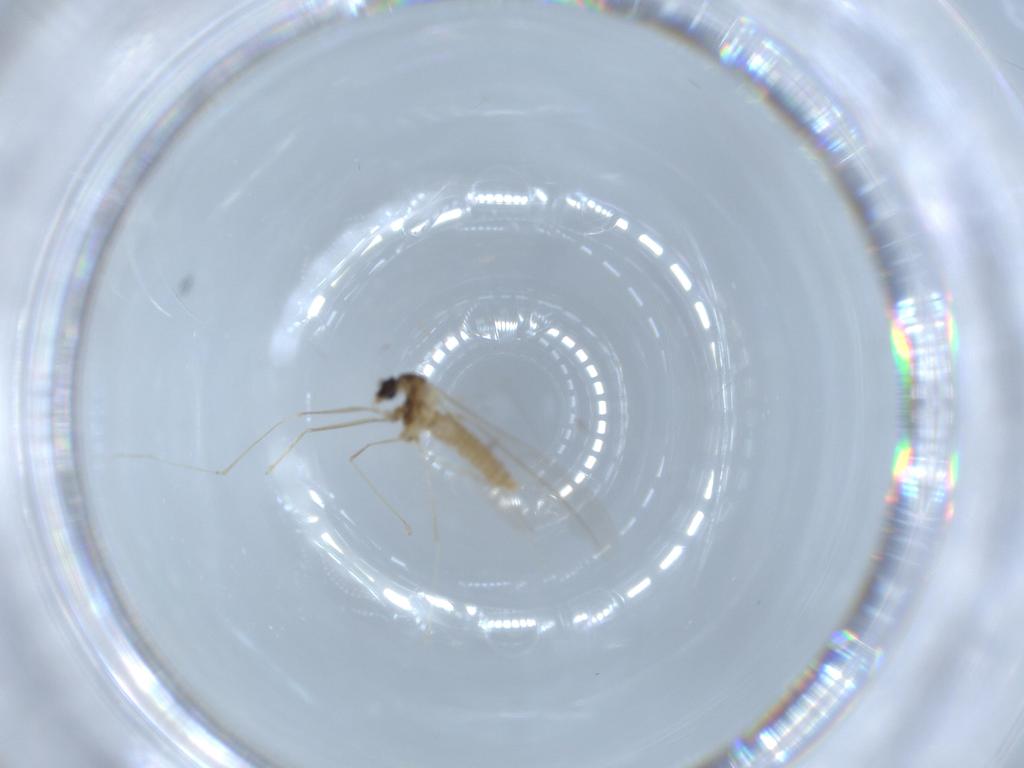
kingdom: Animalia
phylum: Arthropoda
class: Insecta
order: Diptera
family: Cecidomyiidae
